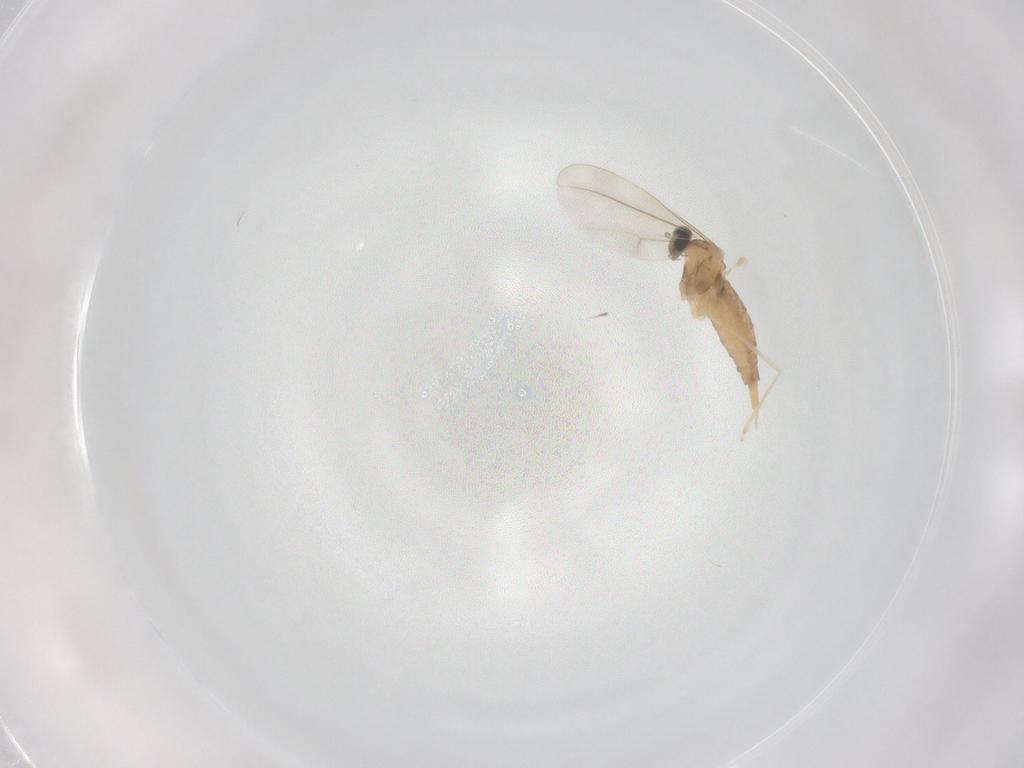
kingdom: Animalia
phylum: Arthropoda
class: Insecta
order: Diptera
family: Cecidomyiidae
